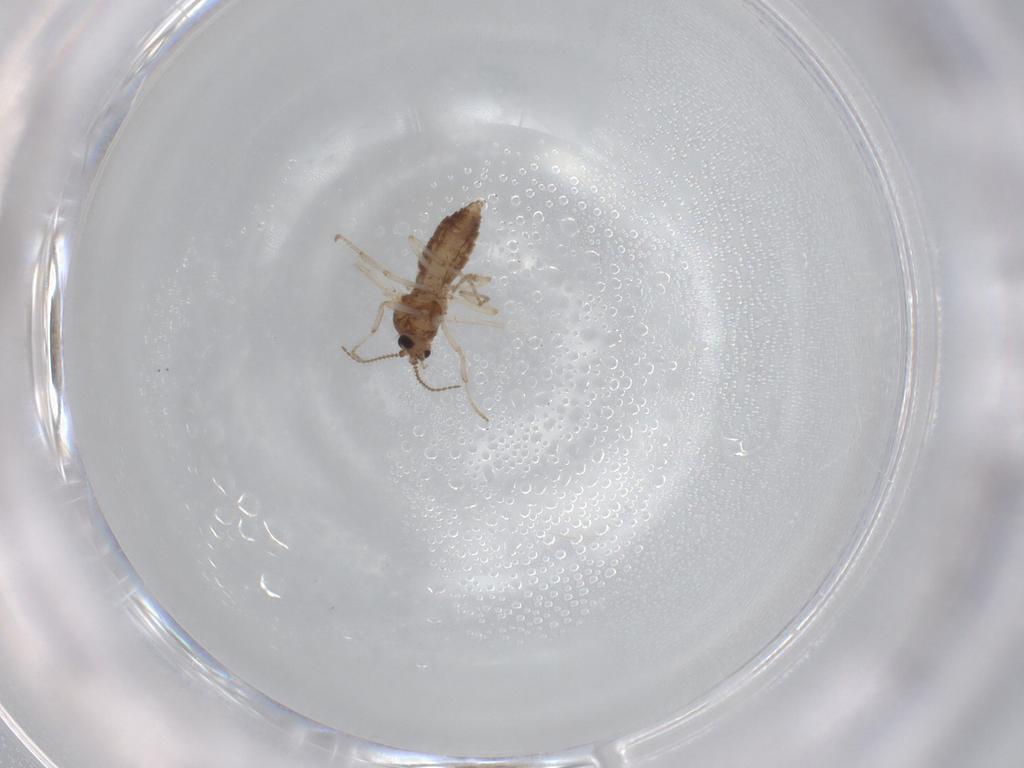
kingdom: Animalia
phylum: Arthropoda
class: Insecta
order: Diptera
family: Ceratopogonidae
